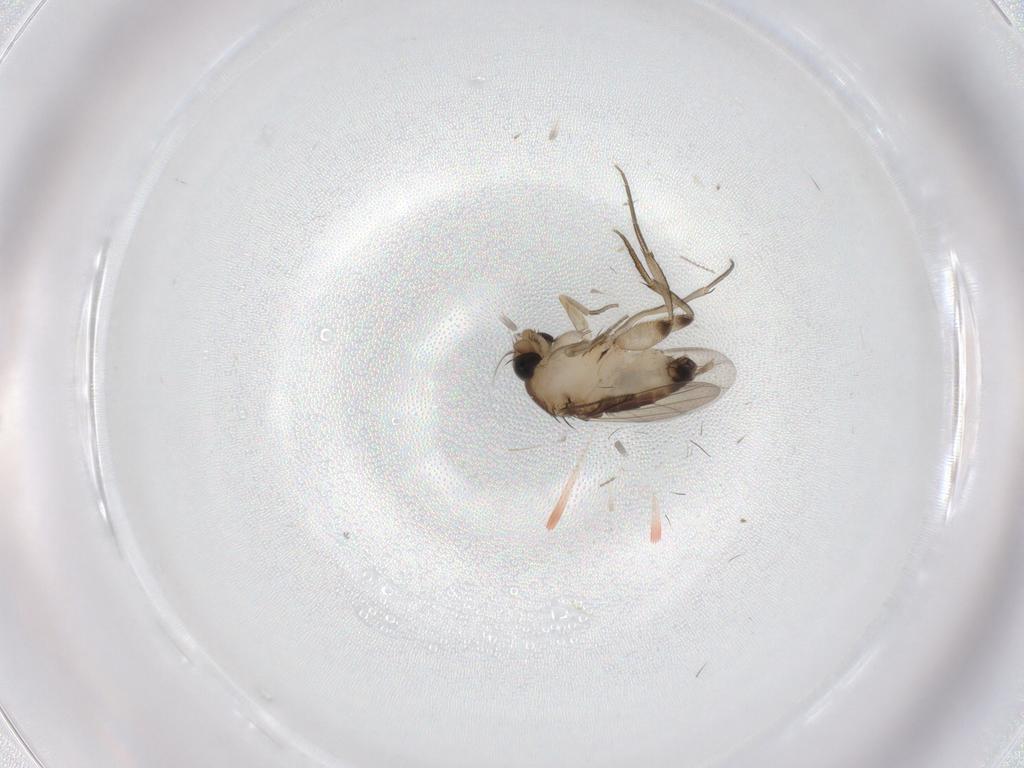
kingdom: Animalia
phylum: Arthropoda
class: Insecta
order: Diptera
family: Phoridae
